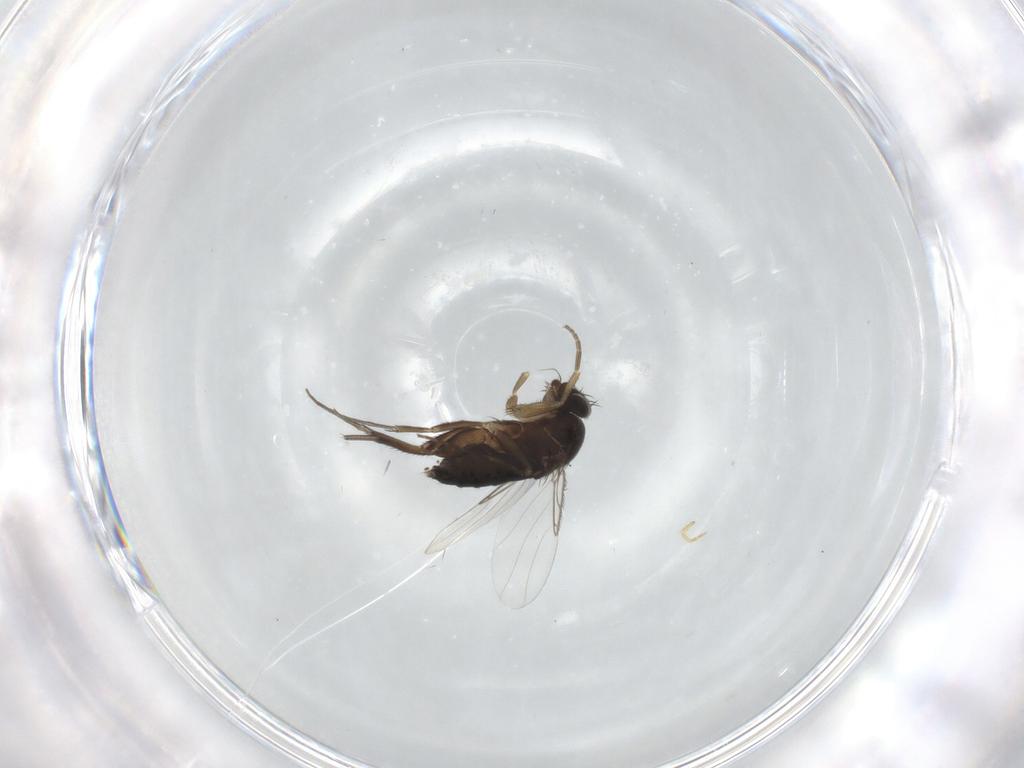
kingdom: Animalia
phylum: Arthropoda
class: Insecta
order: Diptera
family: Phoridae
